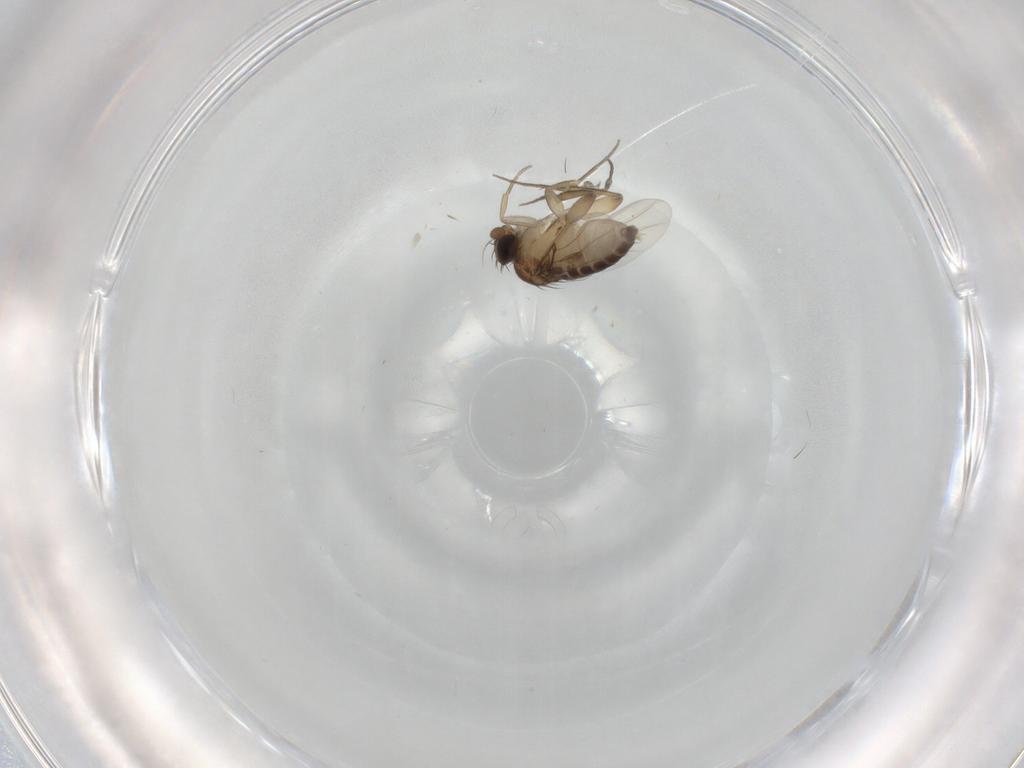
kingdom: Animalia
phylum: Arthropoda
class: Insecta
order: Diptera
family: Phoridae
